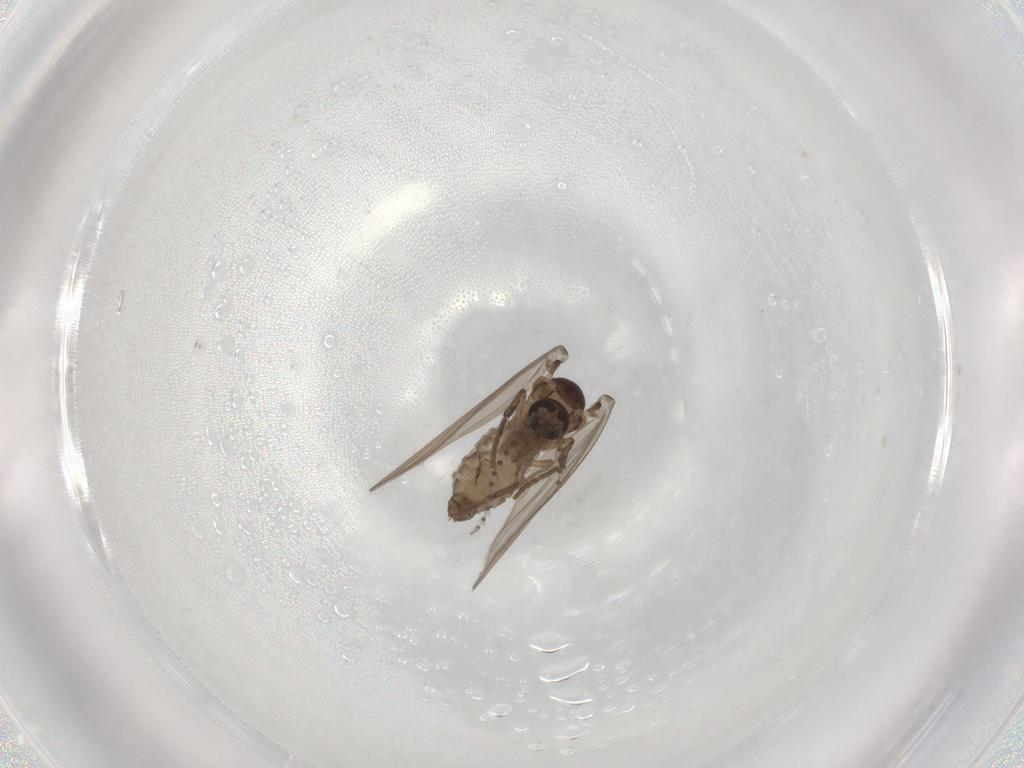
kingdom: Animalia
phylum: Arthropoda
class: Insecta
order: Diptera
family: Psychodidae
